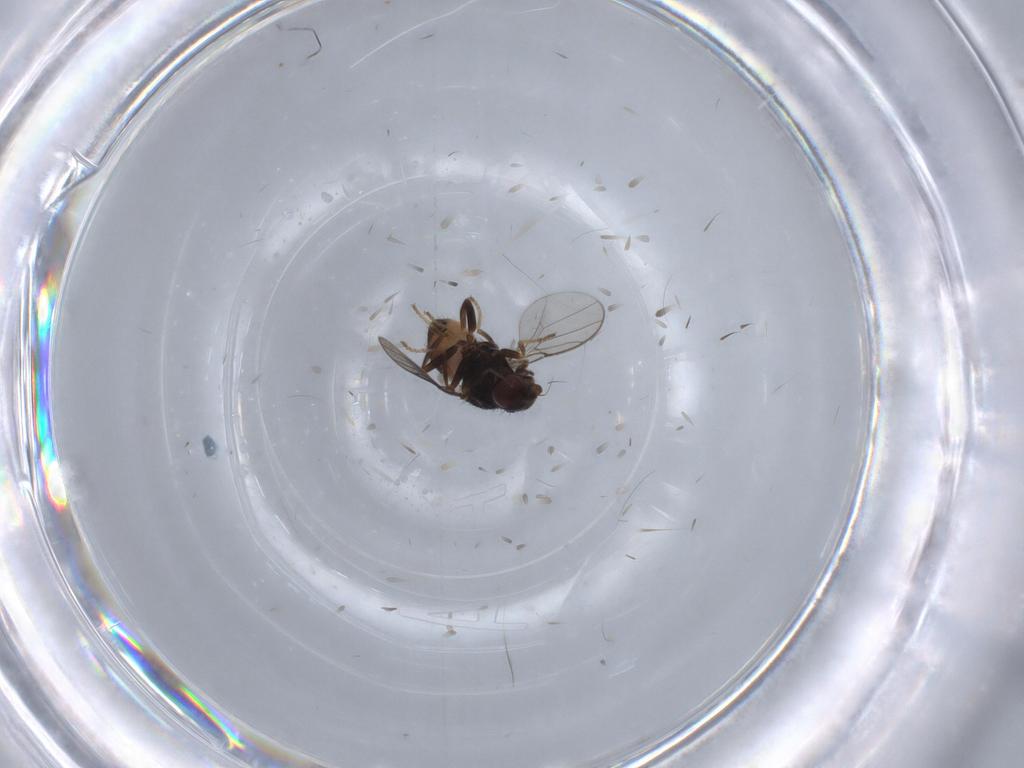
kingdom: Animalia
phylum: Arthropoda
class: Insecta
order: Diptera
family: Chloropidae
